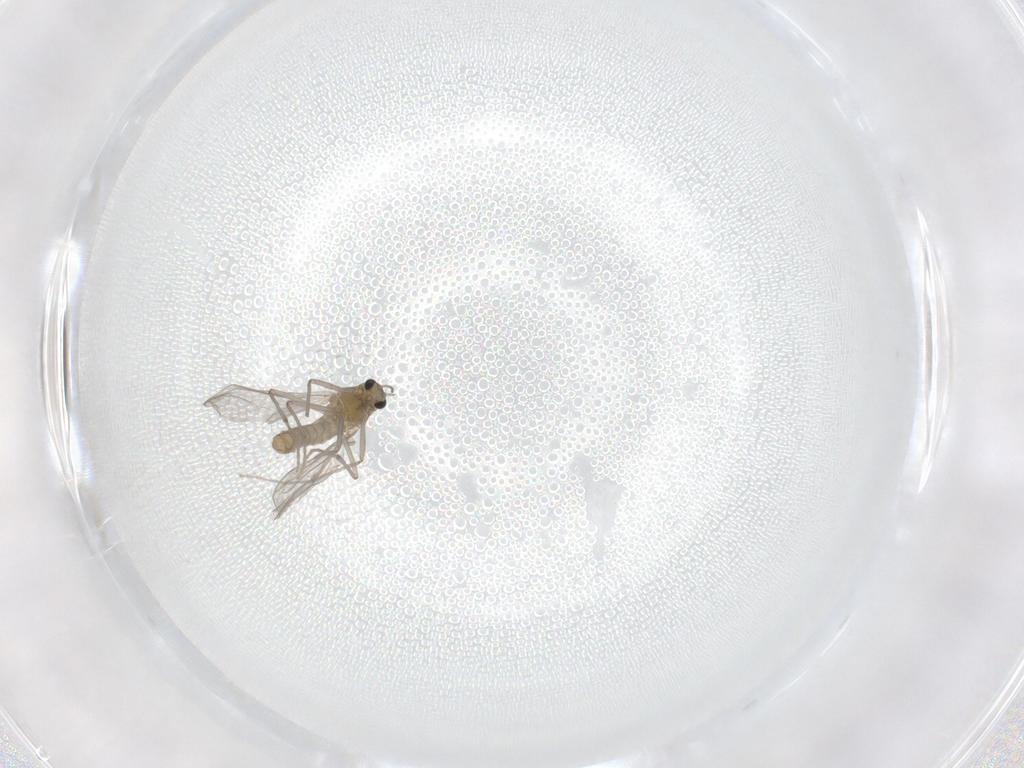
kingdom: Animalia
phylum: Arthropoda
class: Insecta
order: Diptera
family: Chironomidae
